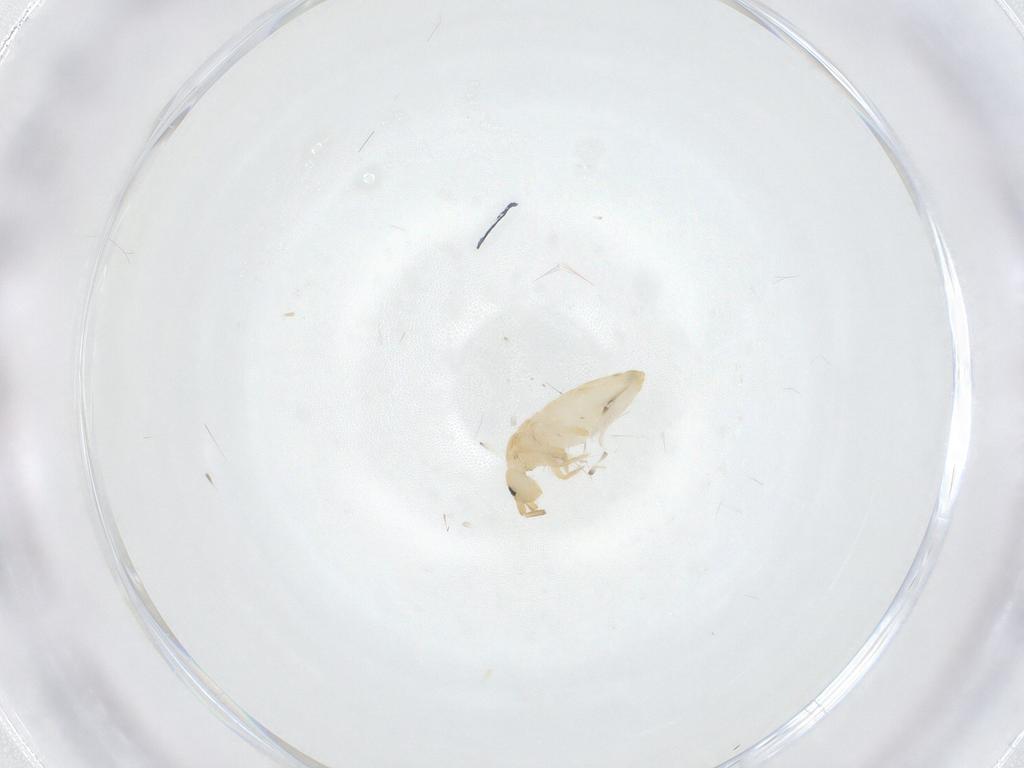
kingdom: Animalia
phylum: Arthropoda
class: Collembola
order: Entomobryomorpha
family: Entomobryidae
